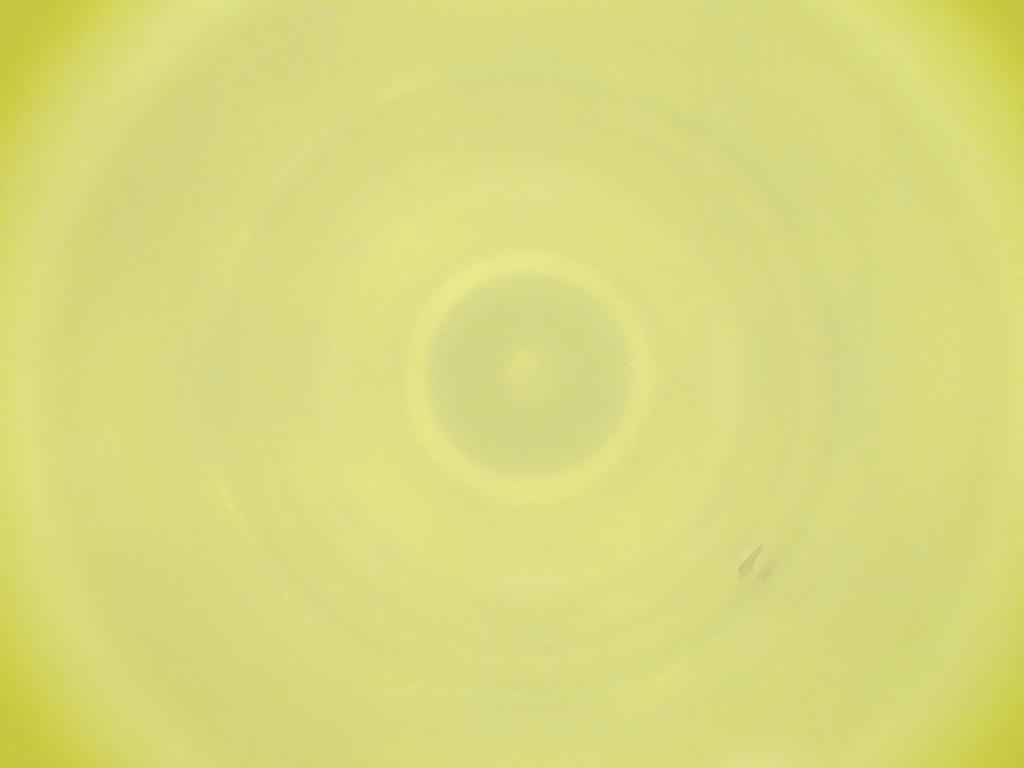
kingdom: Animalia
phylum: Arthropoda
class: Insecta
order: Diptera
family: Cecidomyiidae
